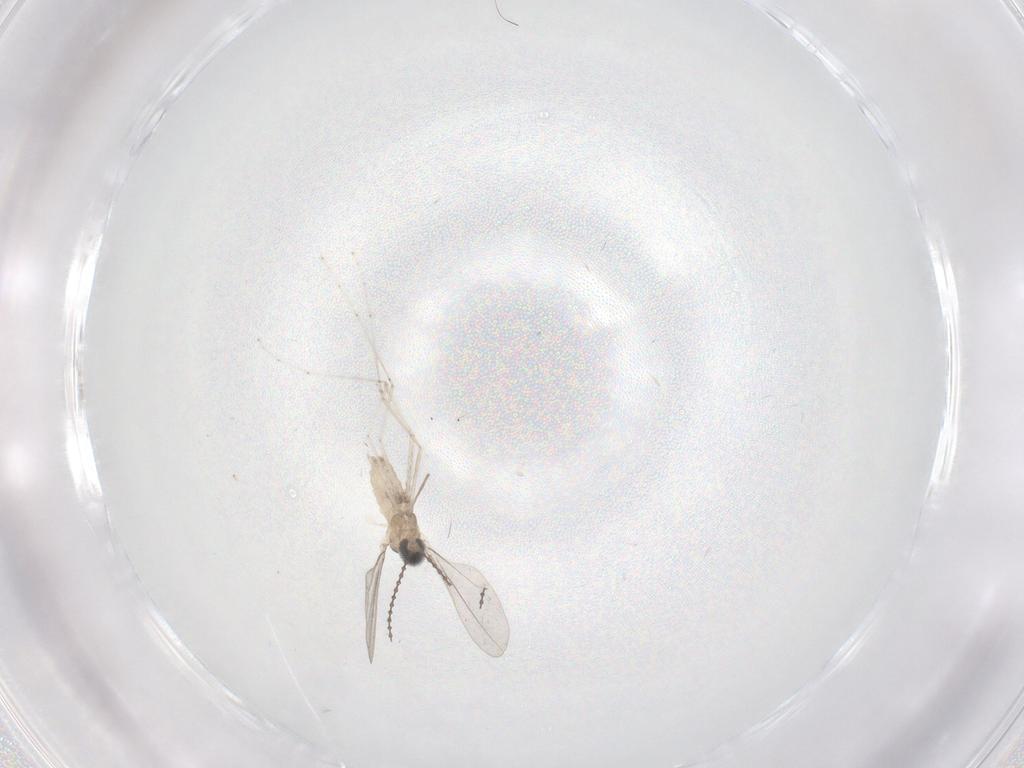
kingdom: Animalia
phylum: Arthropoda
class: Insecta
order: Diptera
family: Cecidomyiidae
